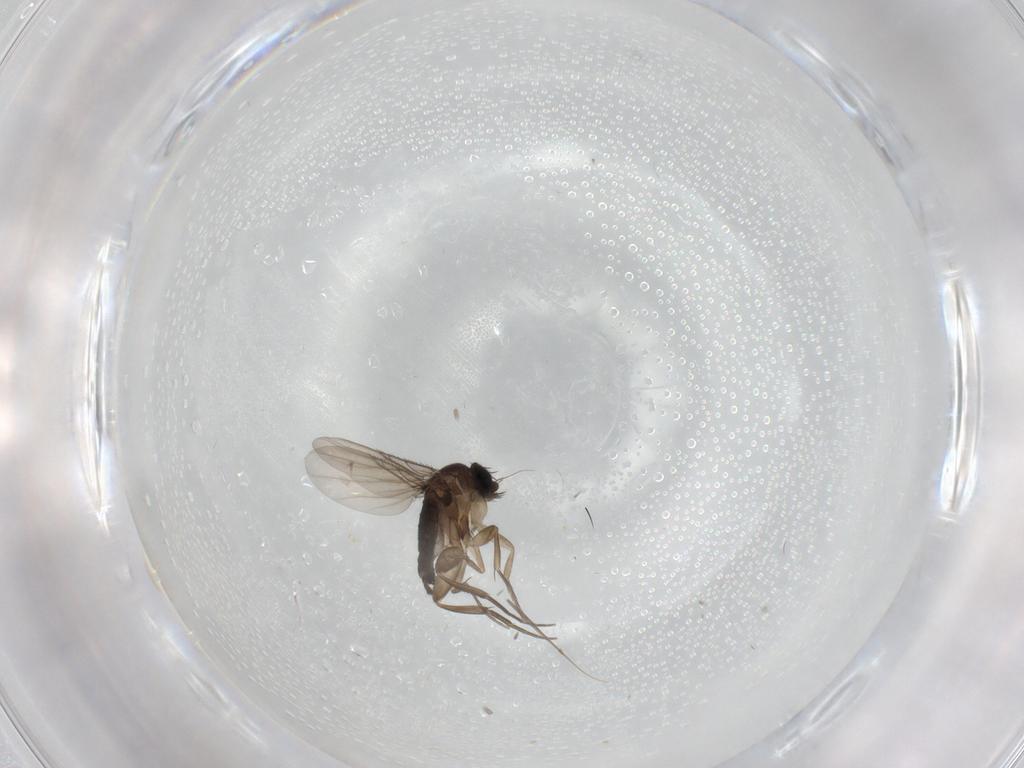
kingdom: Animalia
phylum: Arthropoda
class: Insecta
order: Diptera
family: Phoridae
